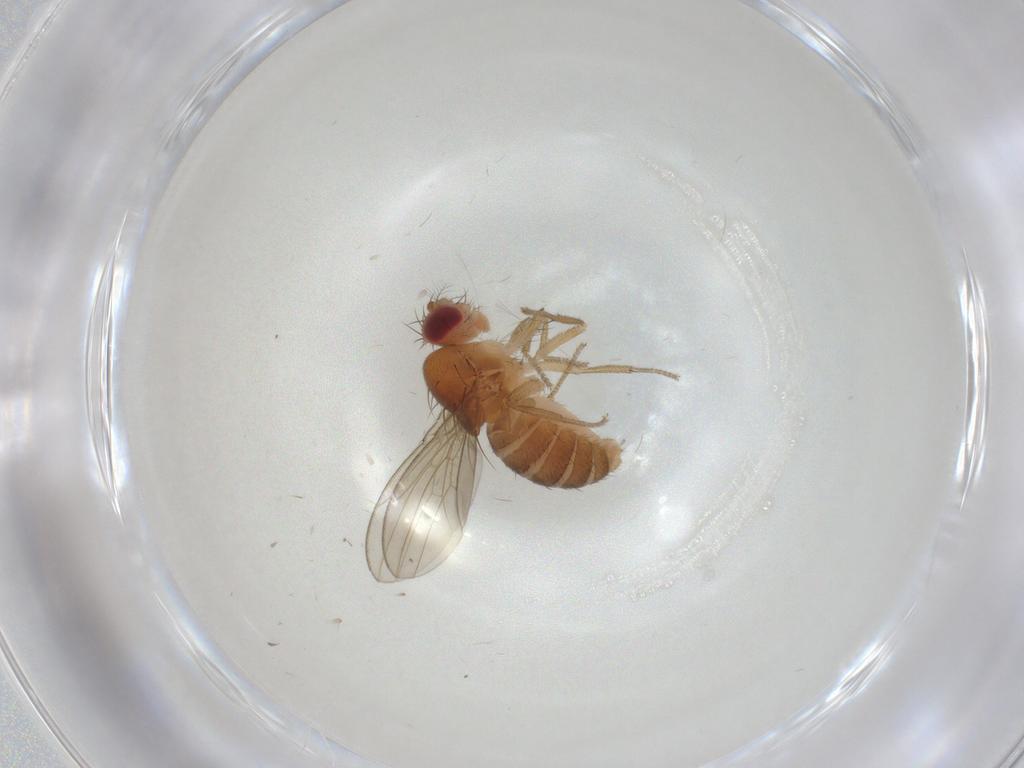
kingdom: Animalia
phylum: Arthropoda
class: Insecta
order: Diptera
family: Drosophilidae
